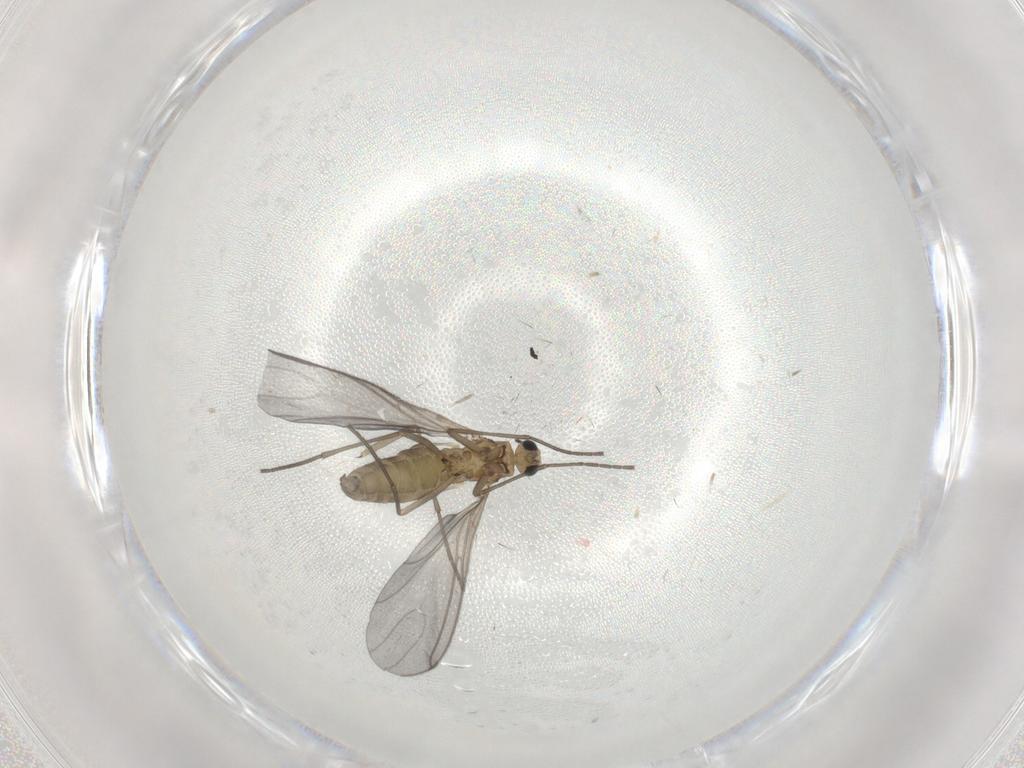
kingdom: Animalia
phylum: Arthropoda
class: Insecta
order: Diptera
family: Sciaridae
